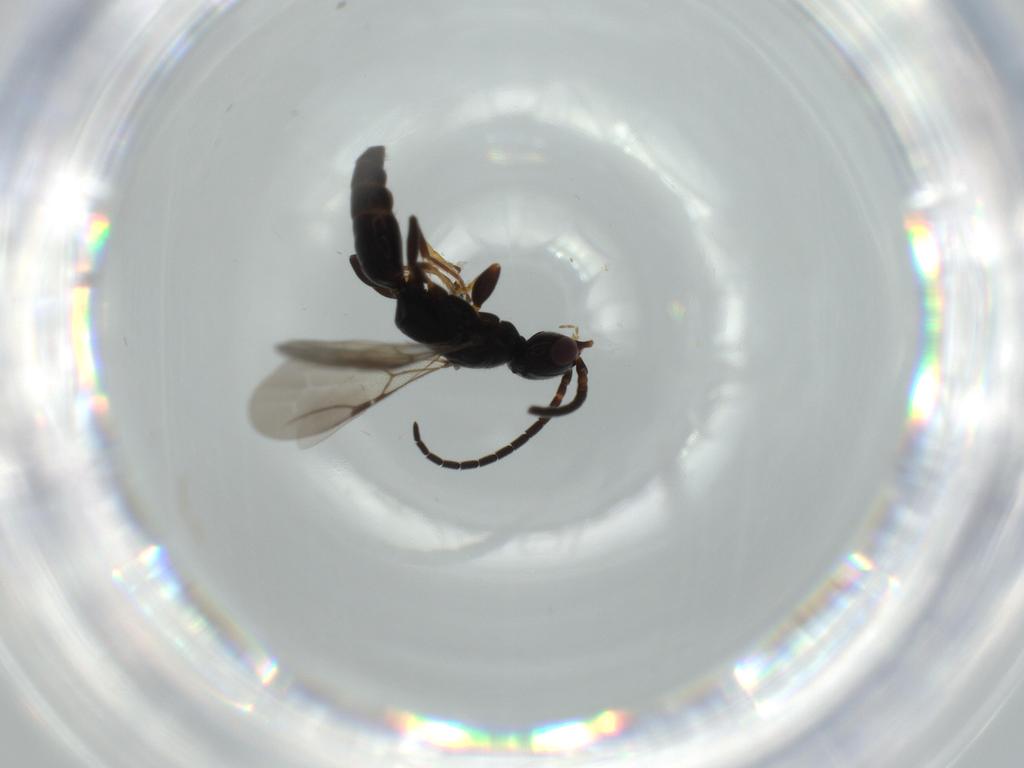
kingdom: Animalia
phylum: Arthropoda
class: Insecta
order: Hymenoptera
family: Bethylidae
